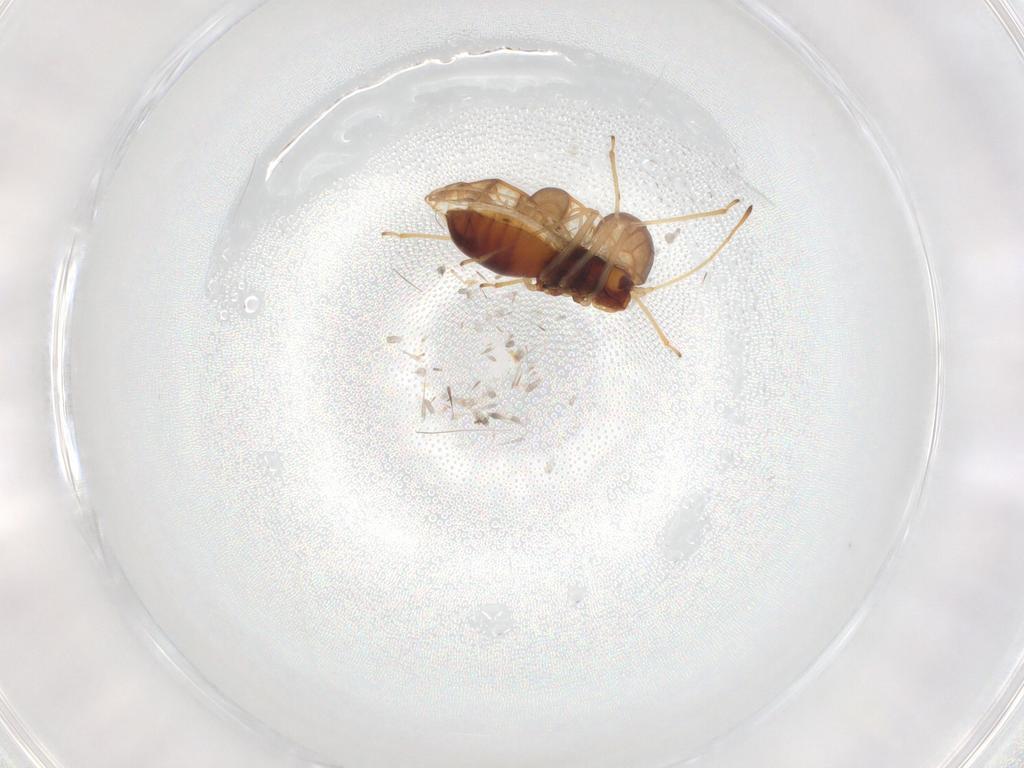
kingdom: Animalia
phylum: Arthropoda
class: Insecta
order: Hemiptera
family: Tingidae
